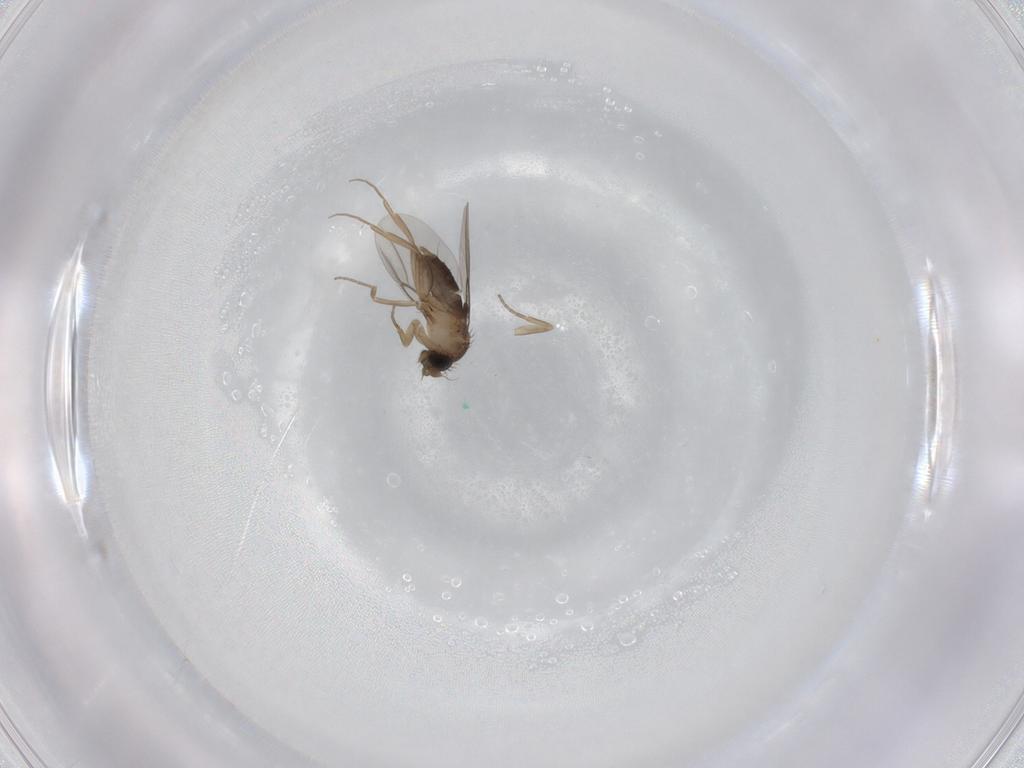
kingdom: Animalia
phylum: Arthropoda
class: Insecta
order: Diptera
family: Phoridae
